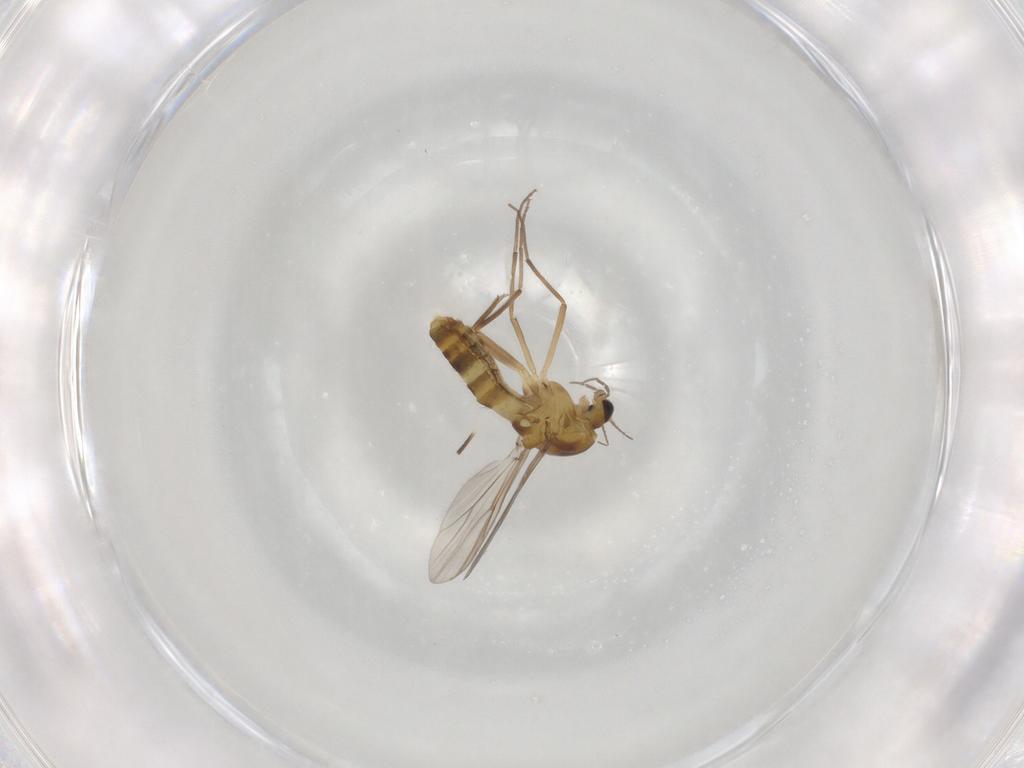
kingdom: Animalia
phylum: Arthropoda
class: Insecta
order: Diptera
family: Chironomidae
